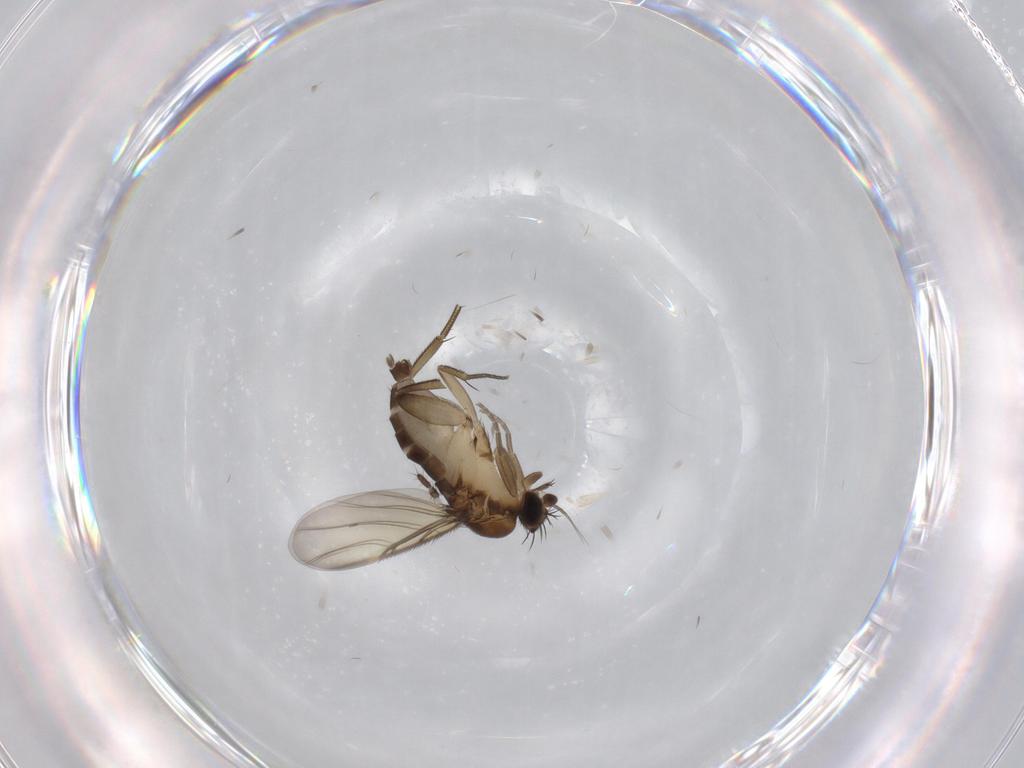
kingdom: Animalia
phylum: Arthropoda
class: Insecta
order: Diptera
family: Phoridae
